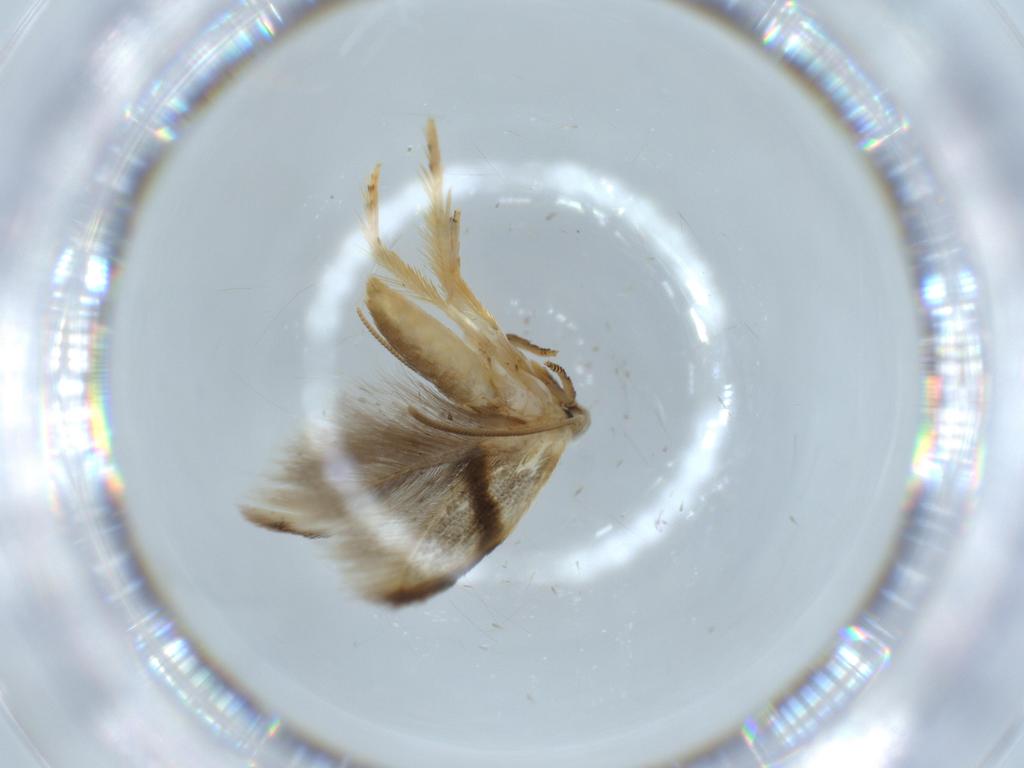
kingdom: Animalia
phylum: Arthropoda
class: Insecta
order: Lepidoptera
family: Opostegidae
